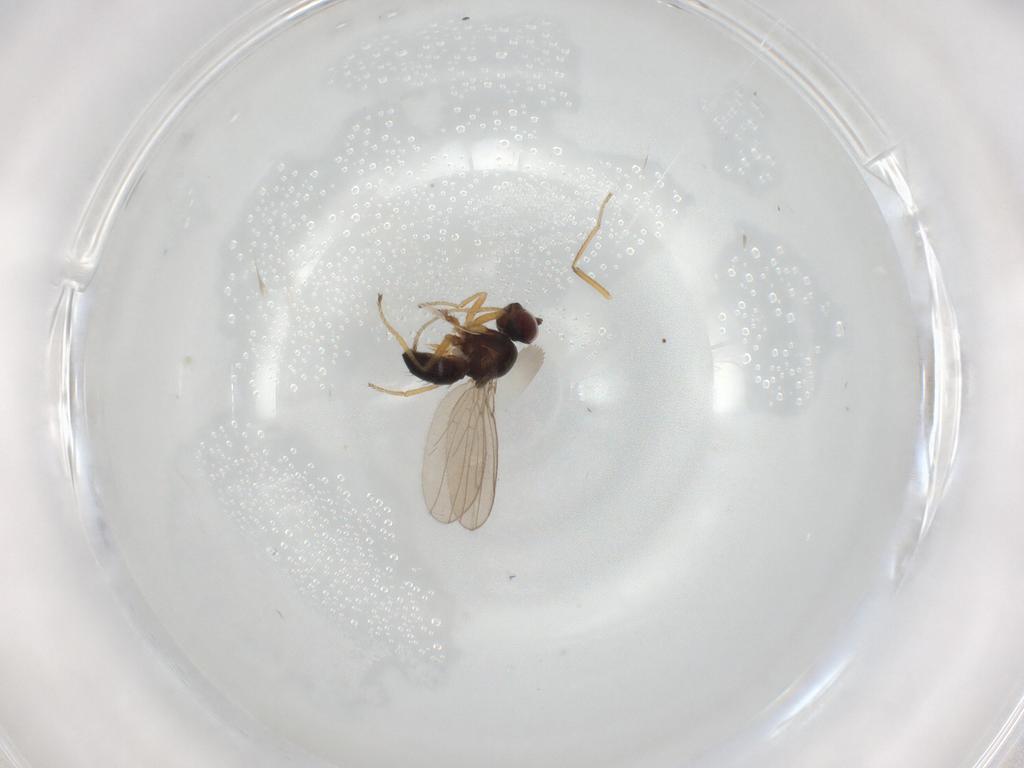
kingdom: Animalia
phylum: Arthropoda
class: Insecta
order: Diptera
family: Ephydridae
